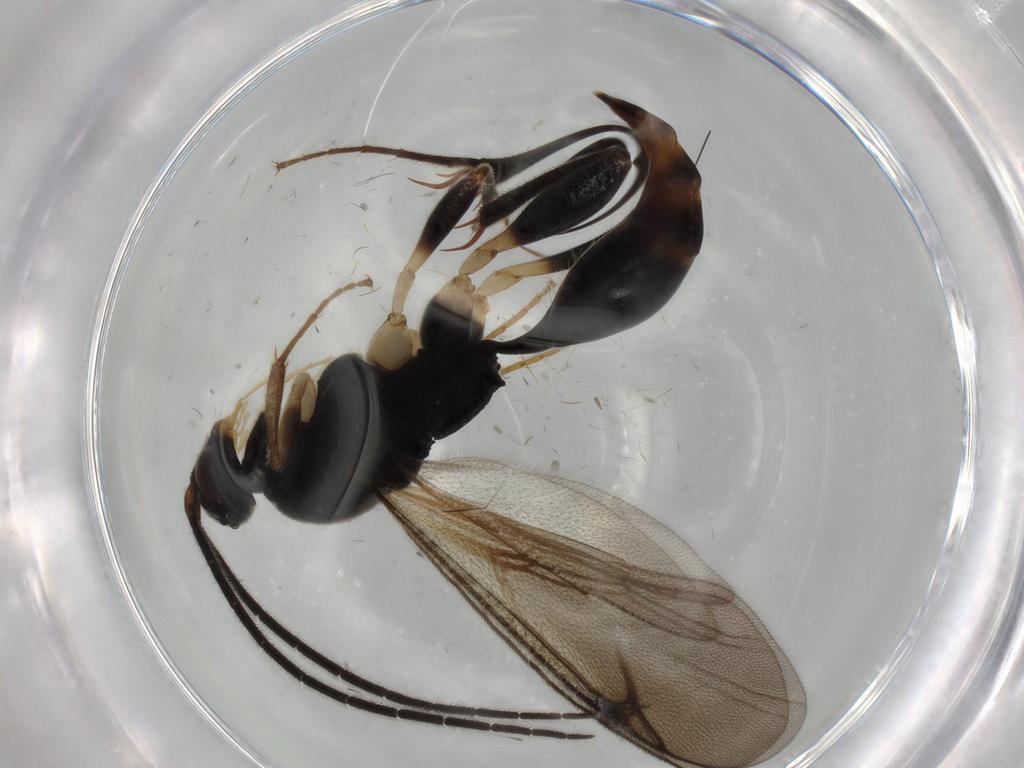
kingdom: Animalia
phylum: Arthropoda
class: Insecta
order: Hymenoptera
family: Proctotrupidae
